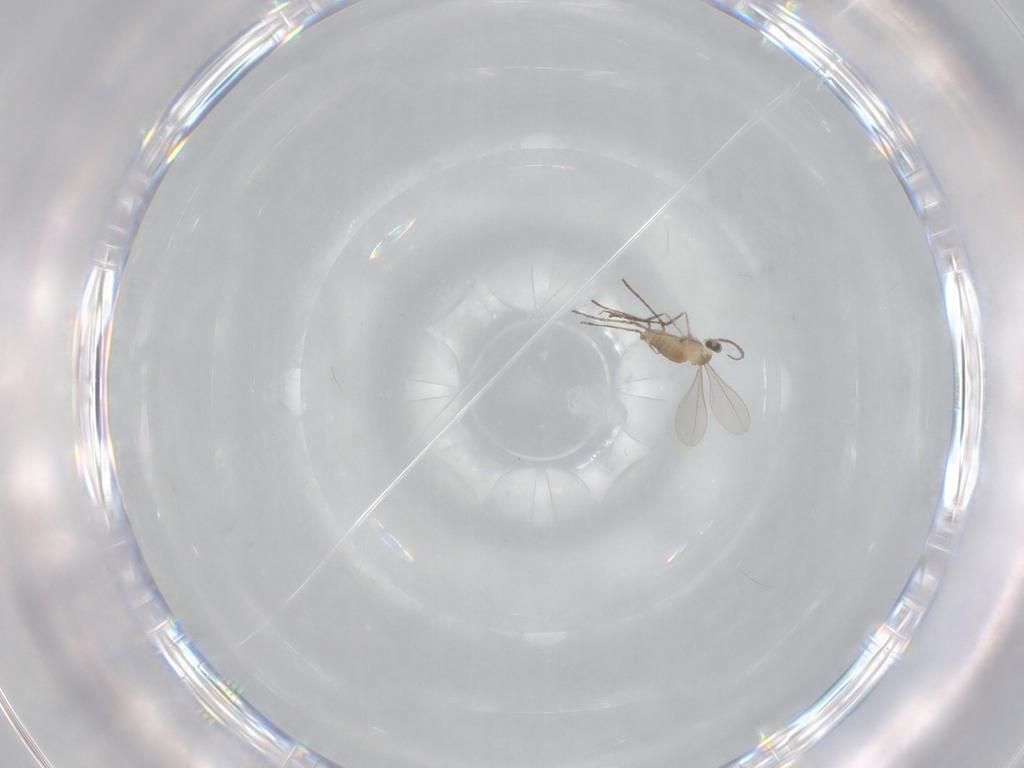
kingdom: Animalia
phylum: Arthropoda
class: Insecta
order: Diptera
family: Cecidomyiidae
